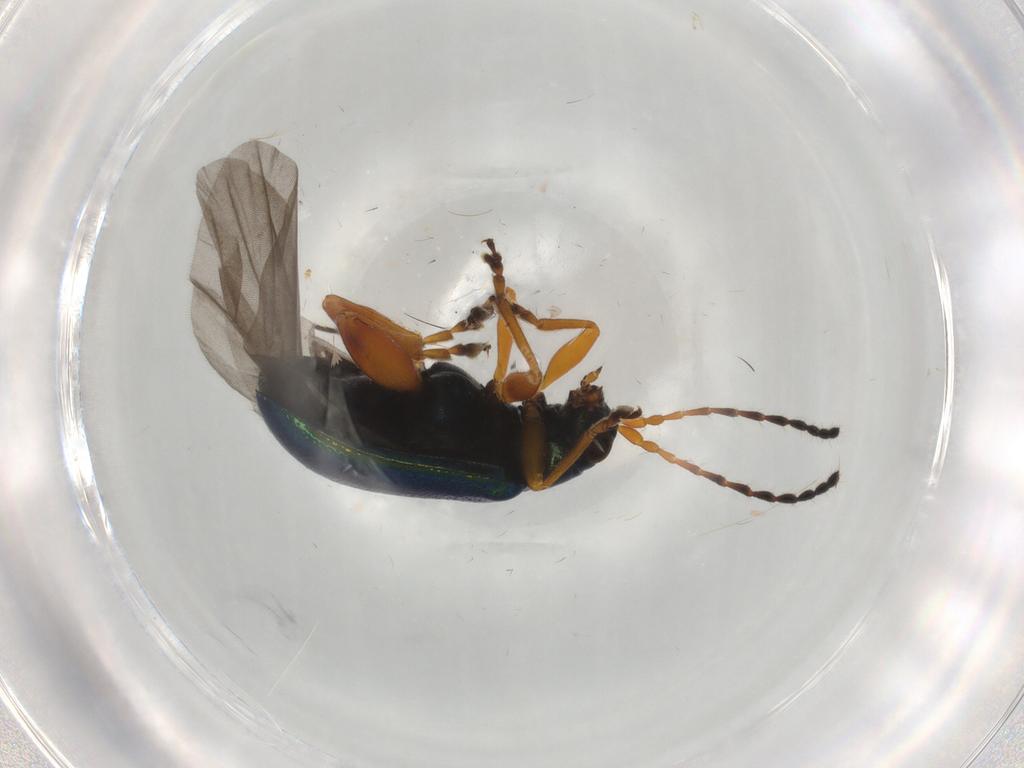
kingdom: Animalia
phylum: Arthropoda
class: Insecta
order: Coleoptera
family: Chrysomelidae
